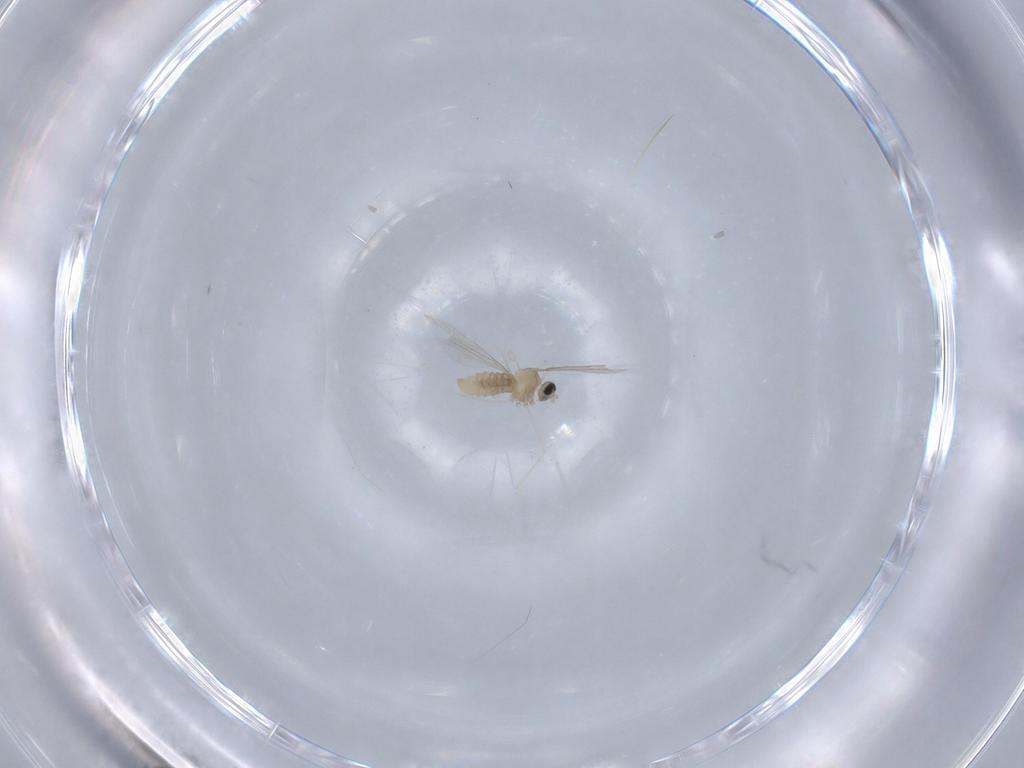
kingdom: Animalia
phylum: Arthropoda
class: Insecta
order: Diptera
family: Cecidomyiidae
